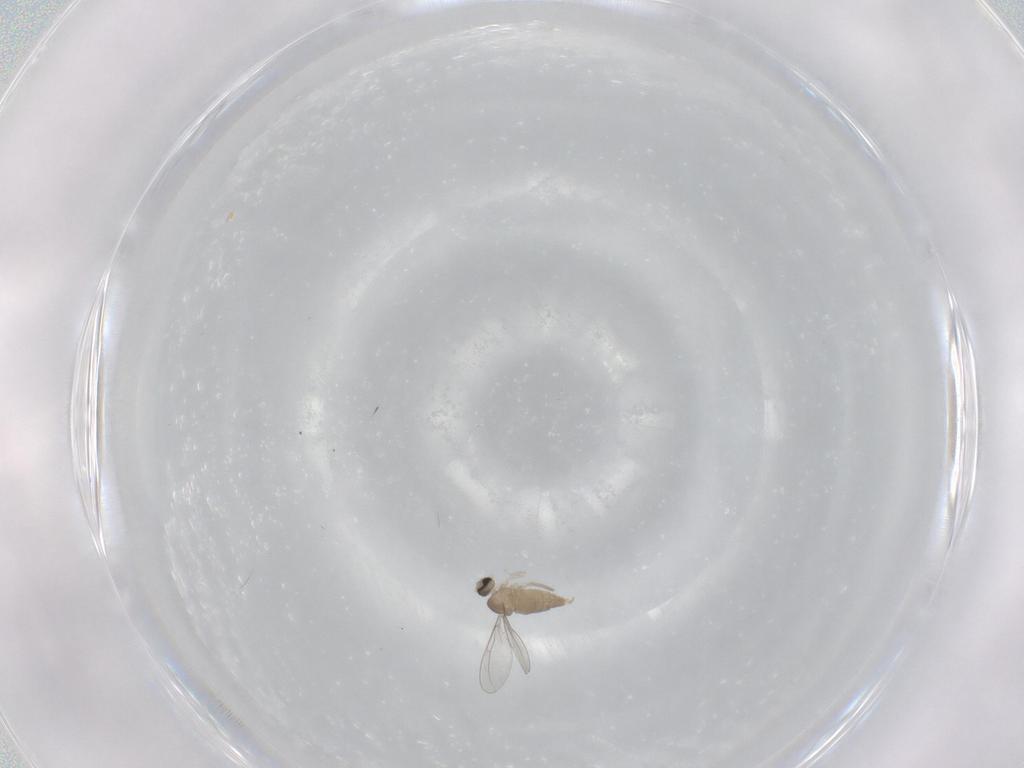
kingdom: Animalia
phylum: Arthropoda
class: Insecta
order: Diptera
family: Cecidomyiidae
